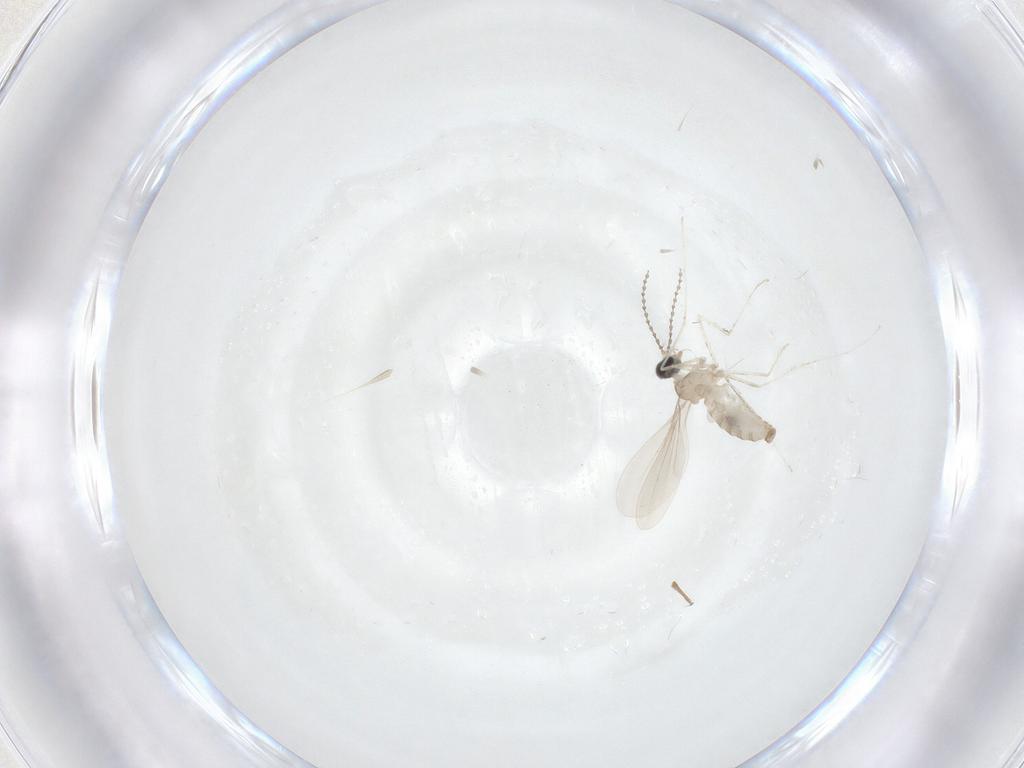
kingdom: Animalia
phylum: Arthropoda
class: Insecta
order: Diptera
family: Cecidomyiidae
